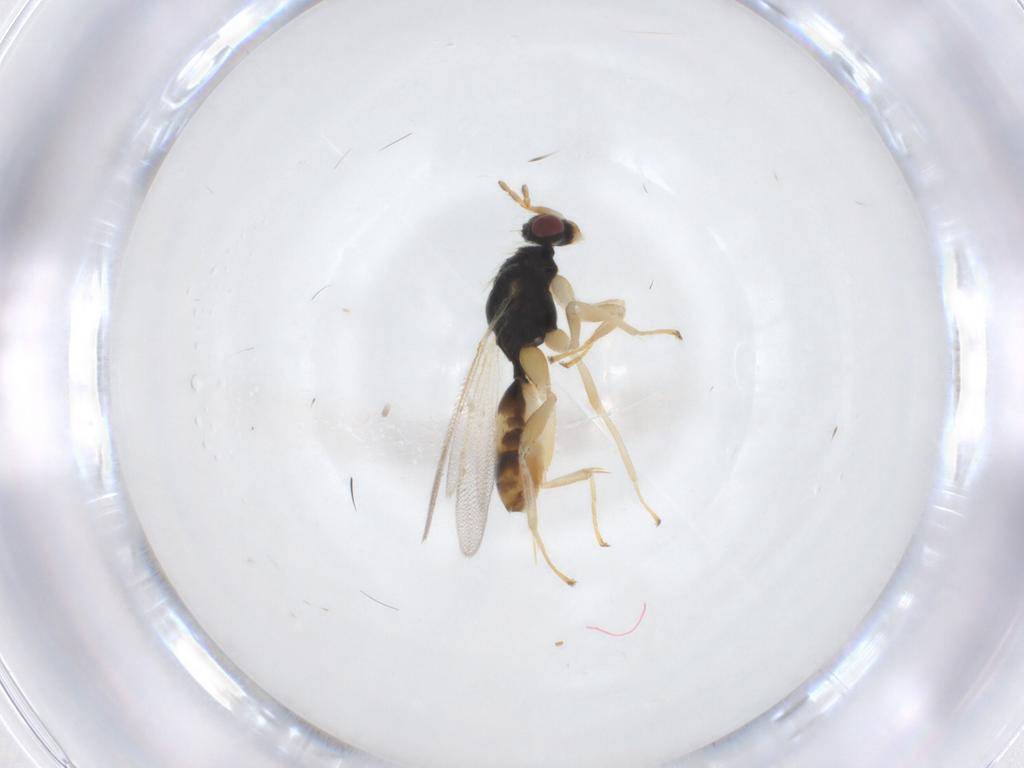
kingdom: Animalia
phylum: Arthropoda
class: Insecta
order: Hymenoptera
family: Eulophidae
